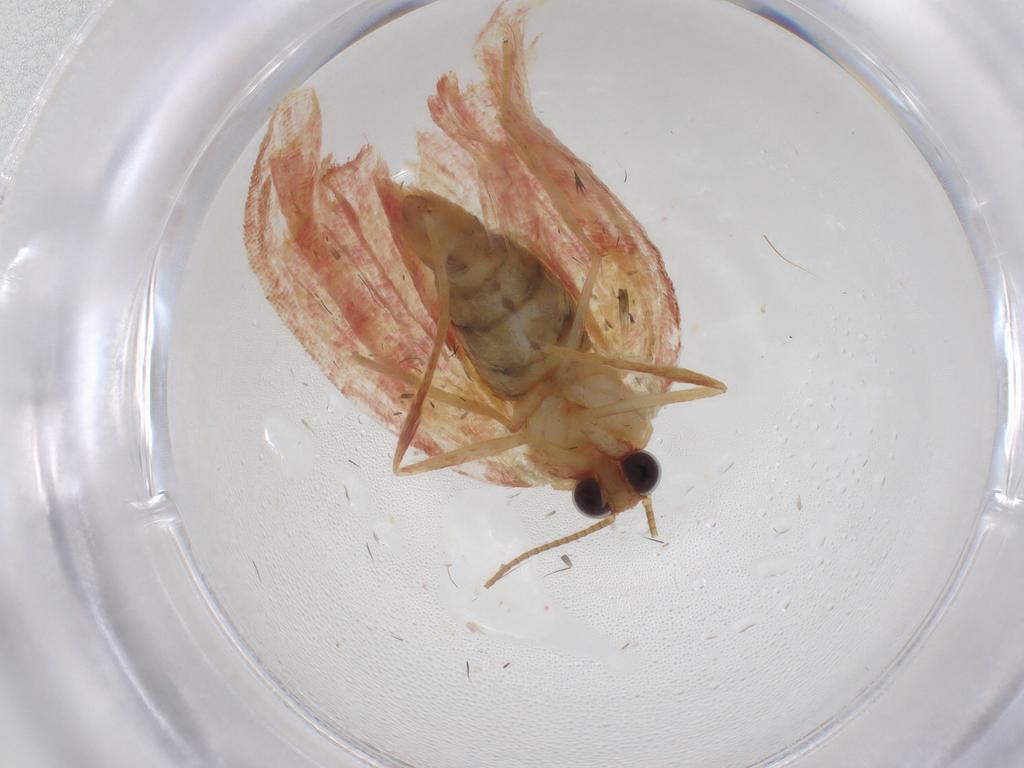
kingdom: Animalia
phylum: Arthropoda
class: Insecta
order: Lepidoptera
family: Geometridae
